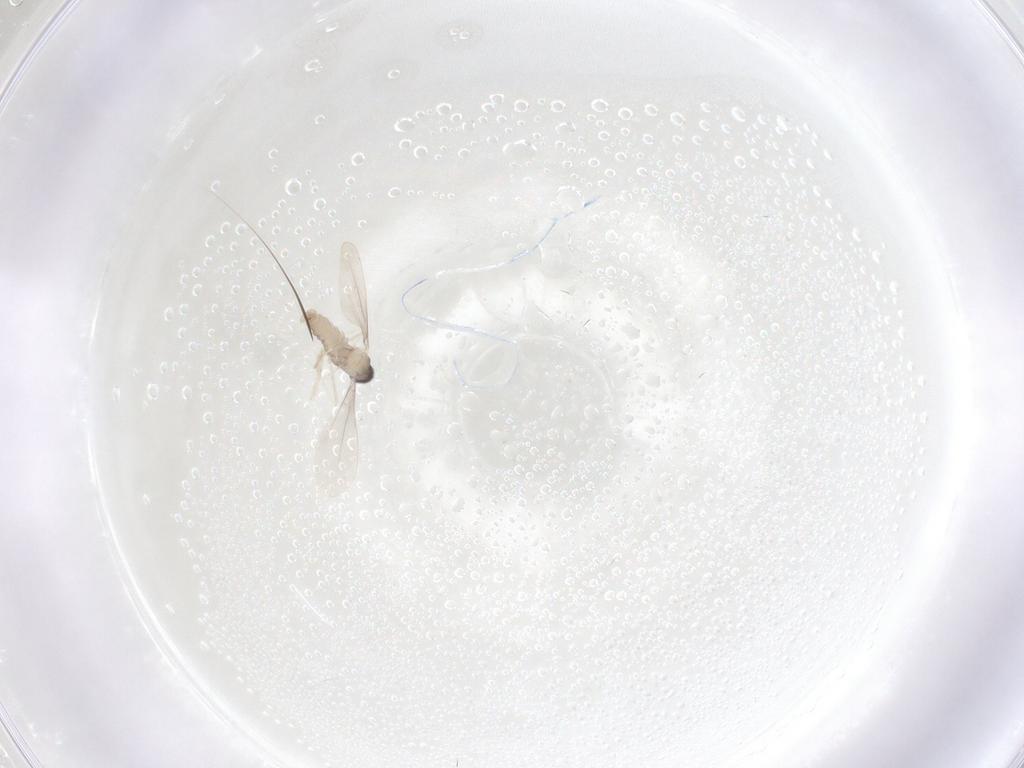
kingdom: Animalia
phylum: Arthropoda
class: Insecta
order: Diptera
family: Cecidomyiidae
